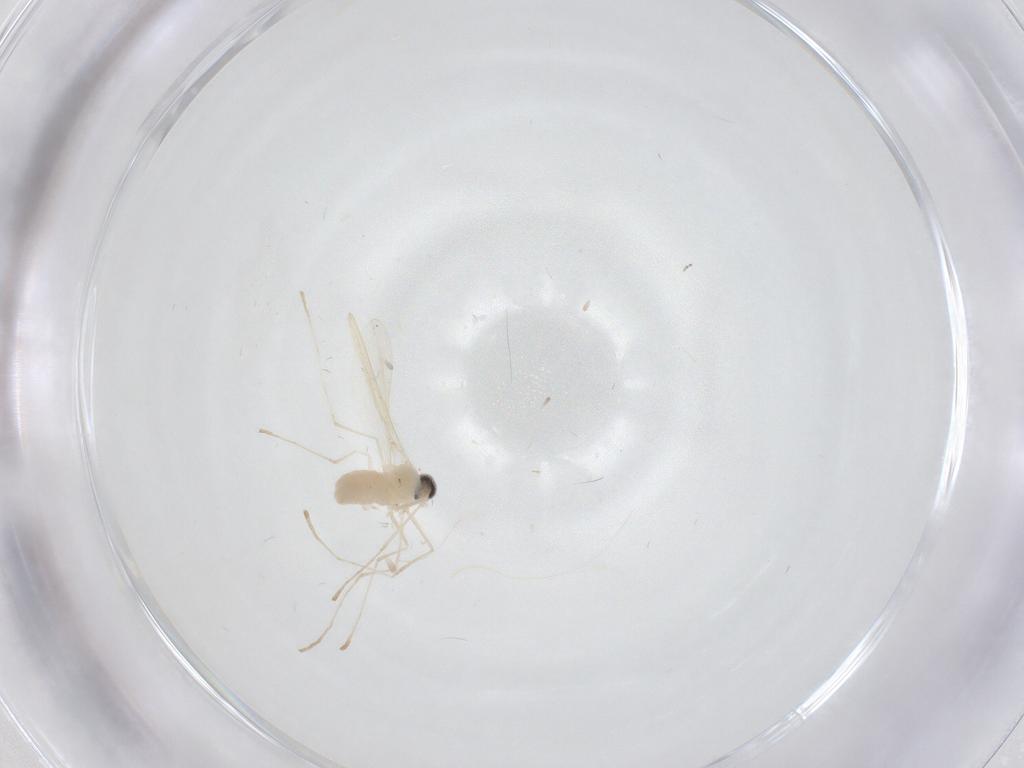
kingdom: Animalia
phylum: Arthropoda
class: Insecta
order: Diptera
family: Cecidomyiidae
